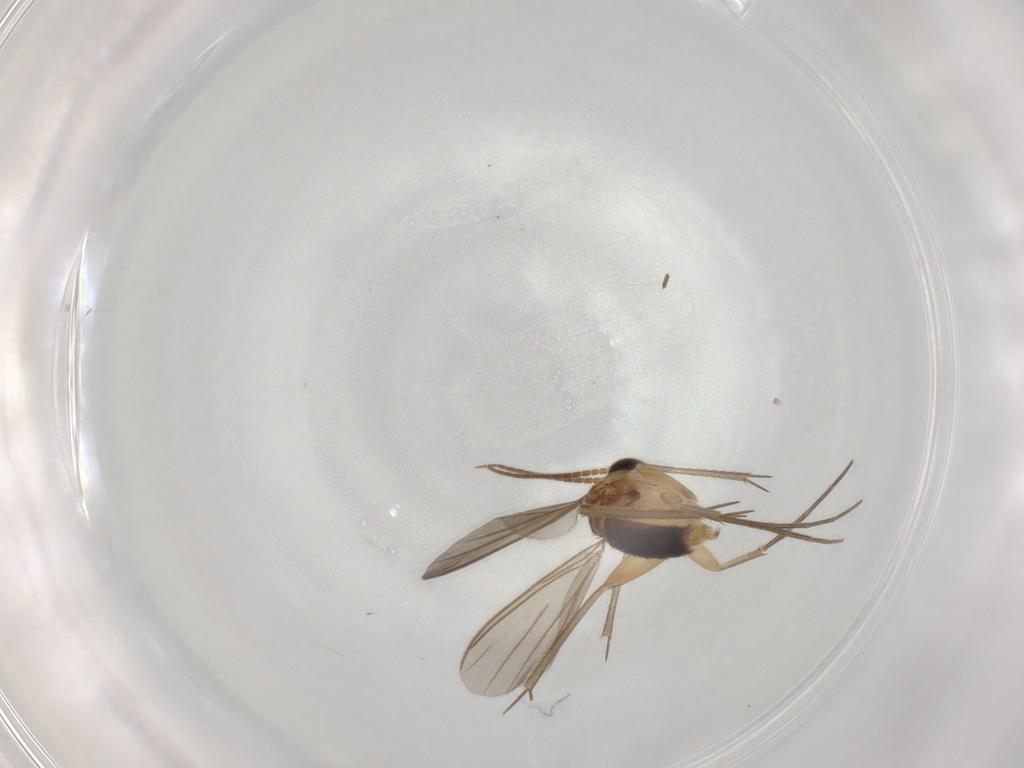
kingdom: Animalia
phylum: Arthropoda
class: Insecta
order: Diptera
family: Mycetophilidae
